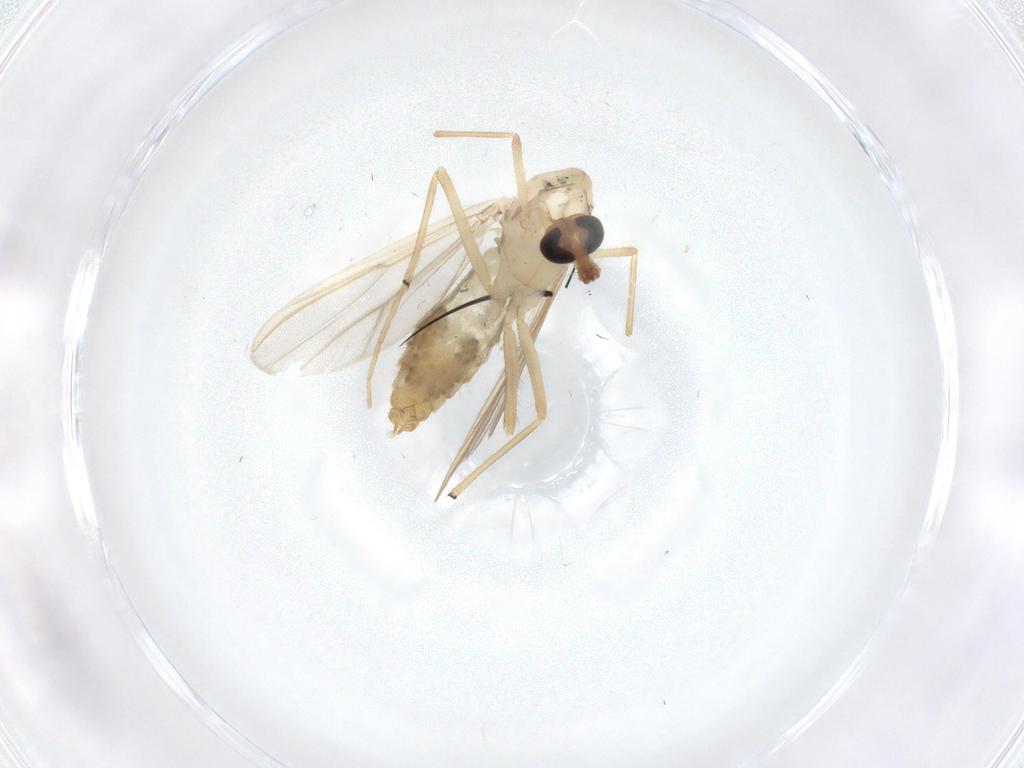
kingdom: Animalia
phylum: Arthropoda
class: Insecta
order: Diptera
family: Chironomidae
